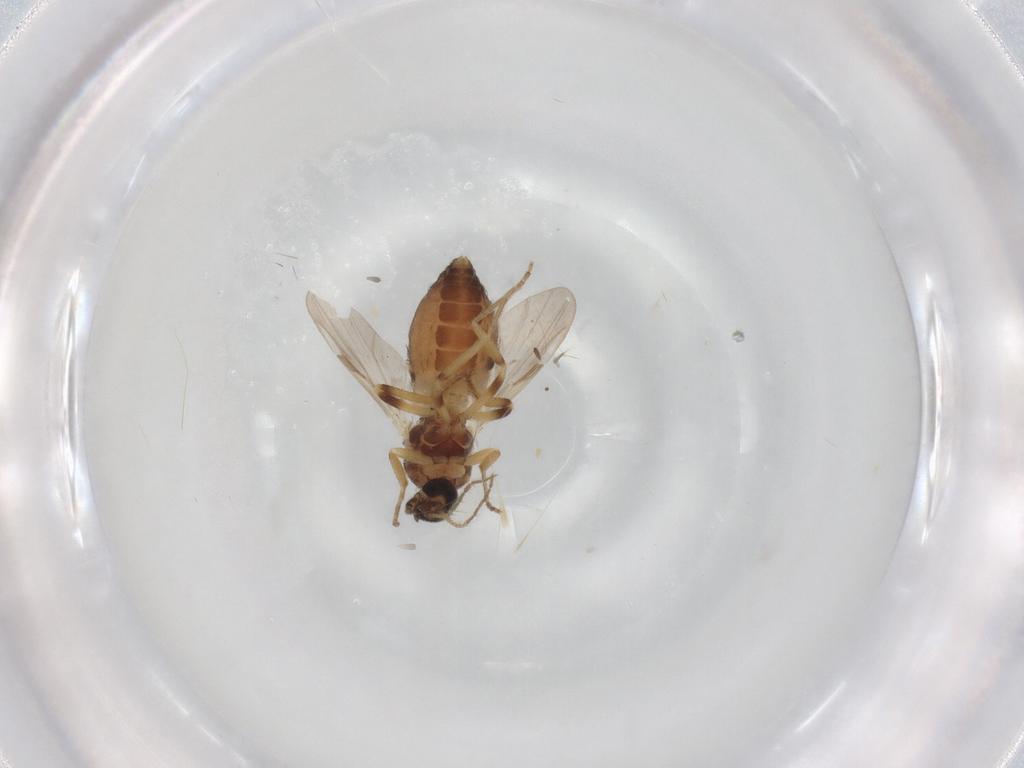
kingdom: Animalia
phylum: Arthropoda
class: Insecta
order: Diptera
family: Ceratopogonidae
